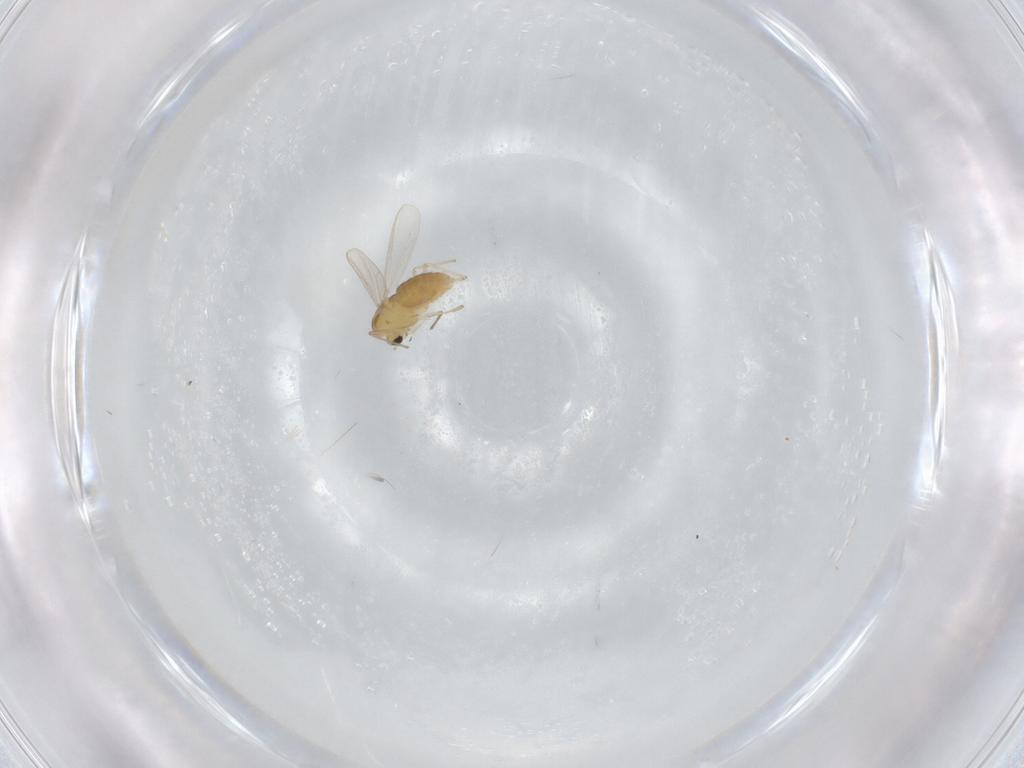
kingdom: Animalia
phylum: Arthropoda
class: Insecta
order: Diptera
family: Chironomidae
